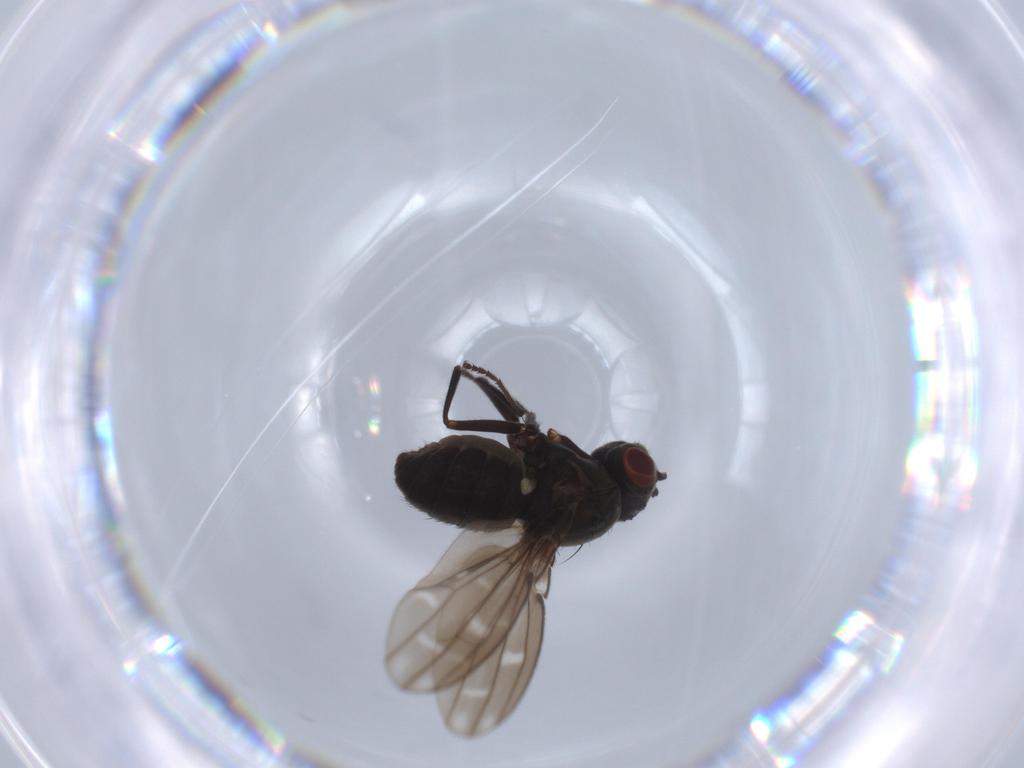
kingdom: Animalia
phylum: Arthropoda
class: Insecta
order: Diptera
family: Ephydridae
